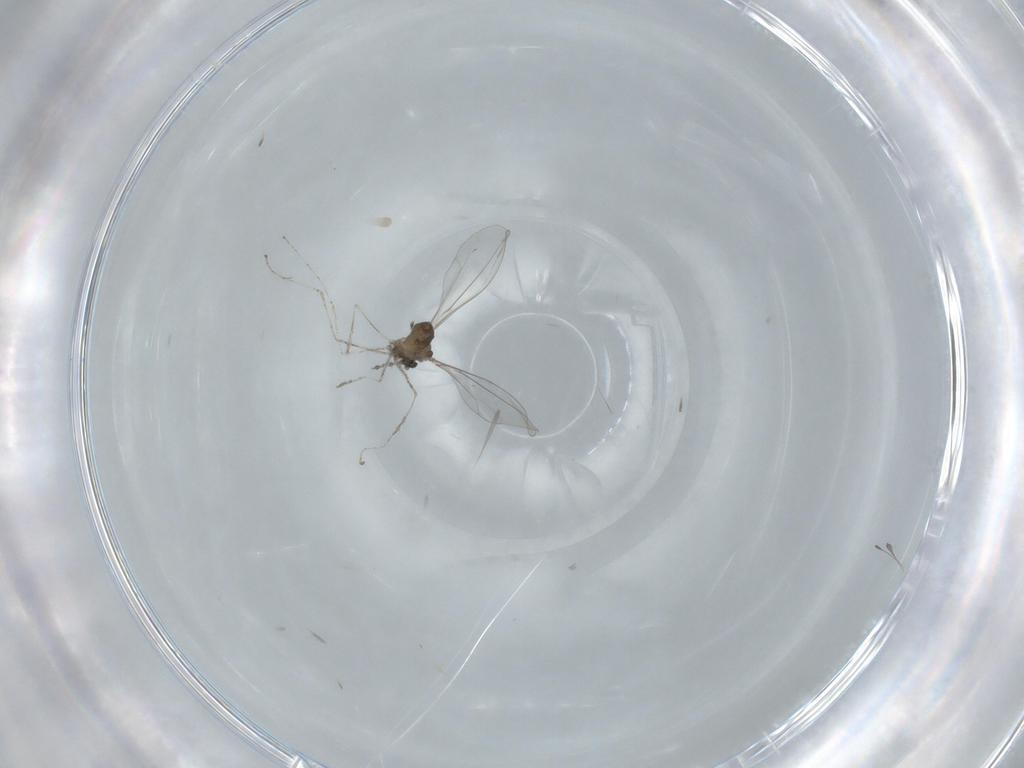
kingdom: Animalia
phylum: Arthropoda
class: Insecta
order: Diptera
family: Cecidomyiidae
